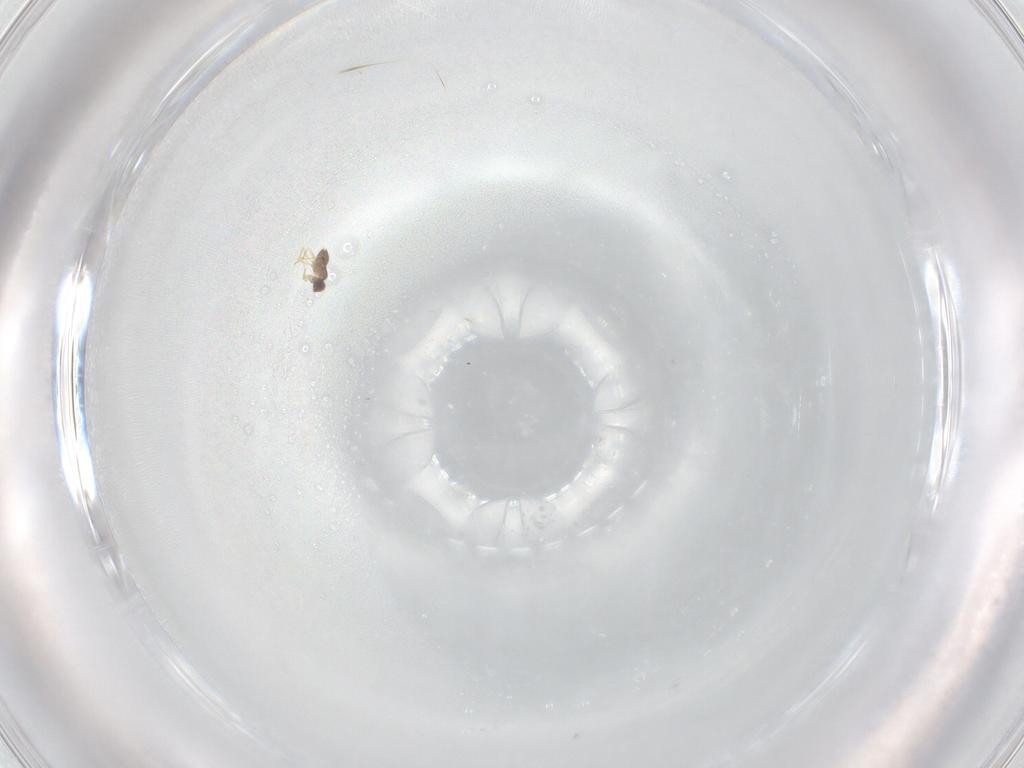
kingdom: Animalia
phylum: Arthropoda
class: Insecta
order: Hymenoptera
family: Mymaridae
